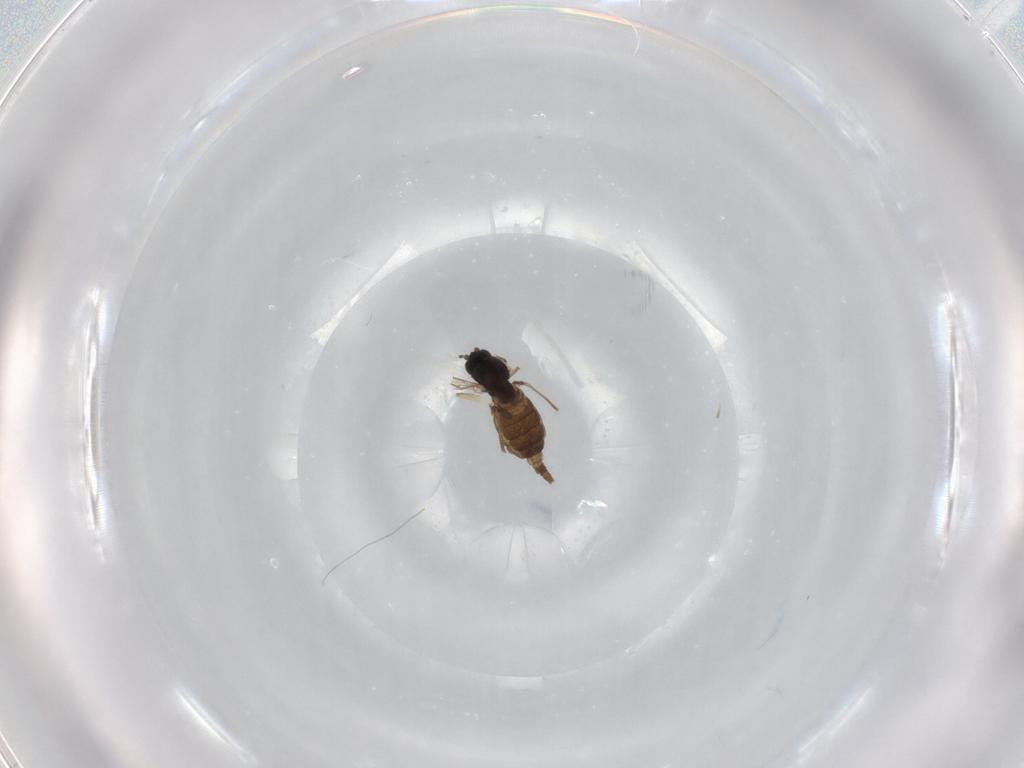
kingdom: Animalia
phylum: Arthropoda
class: Insecta
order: Diptera
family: Sciaridae
